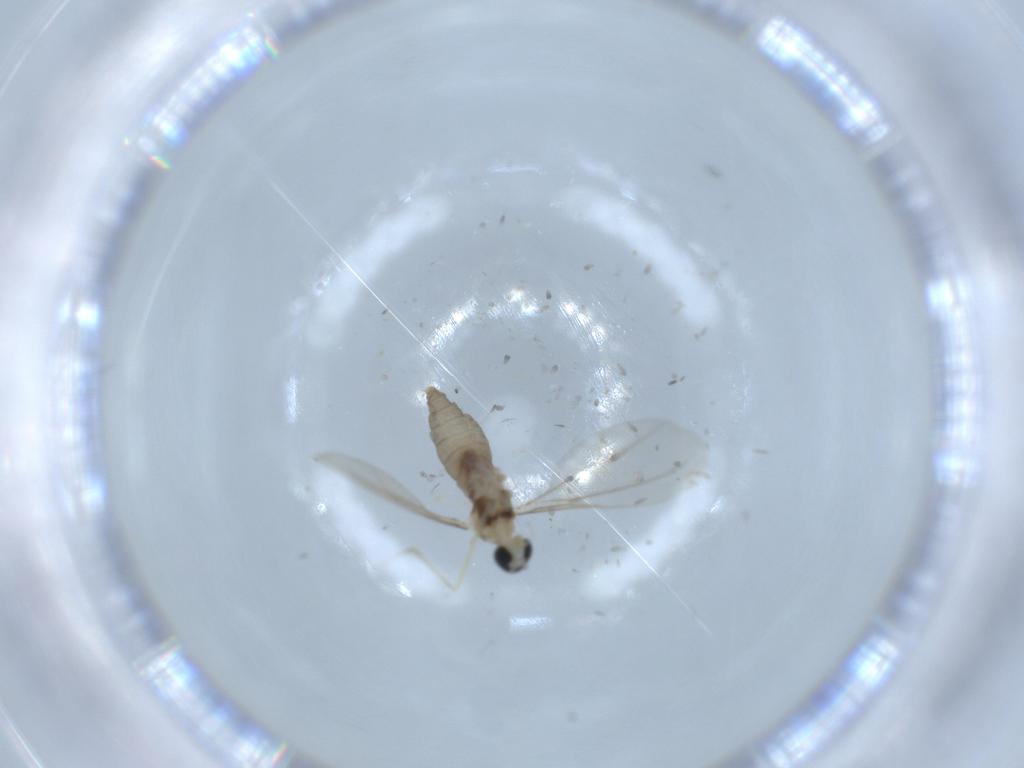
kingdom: Animalia
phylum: Arthropoda
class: Insecta
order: Diptera
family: Cecidomyiidae
